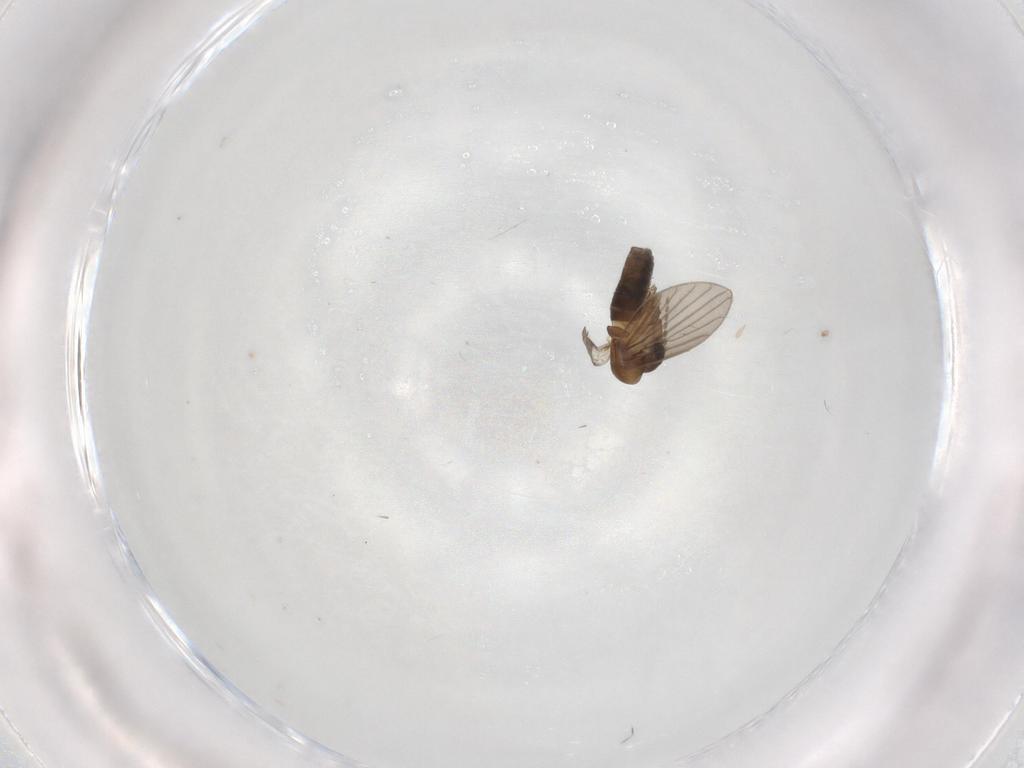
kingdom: Animalia
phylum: Arthropoda
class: Insecta
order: Diptera
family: Psychodidae
